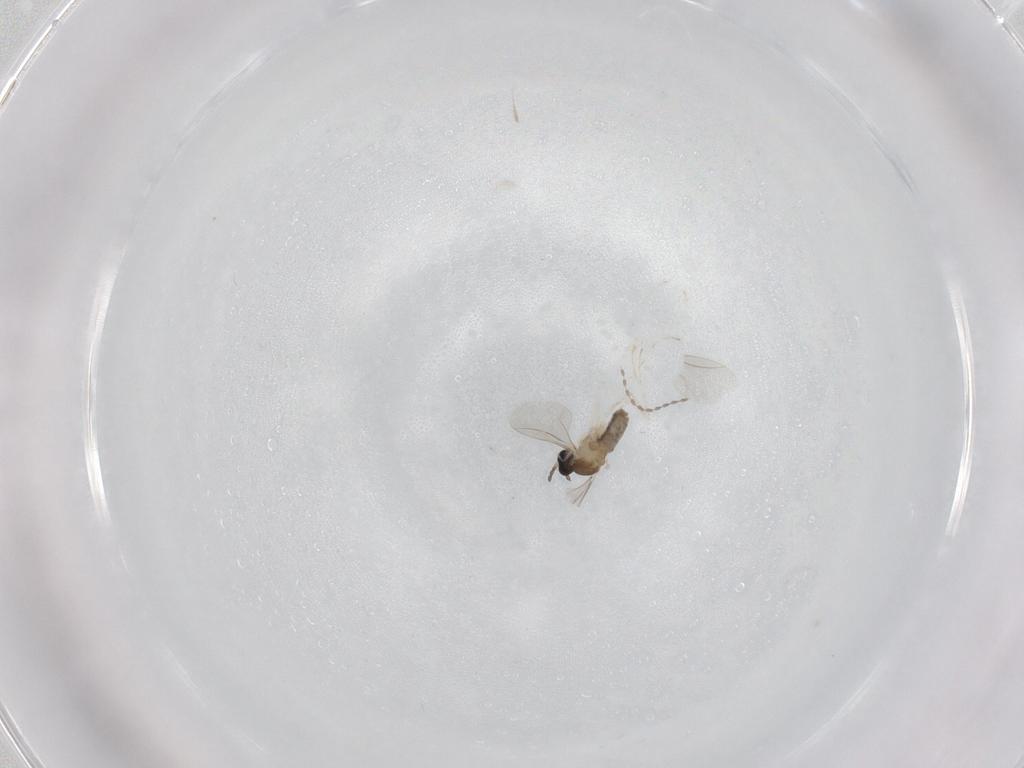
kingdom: Animalia
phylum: Arthropoda
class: Insecta
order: Diptera
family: Cecidomyiidae
